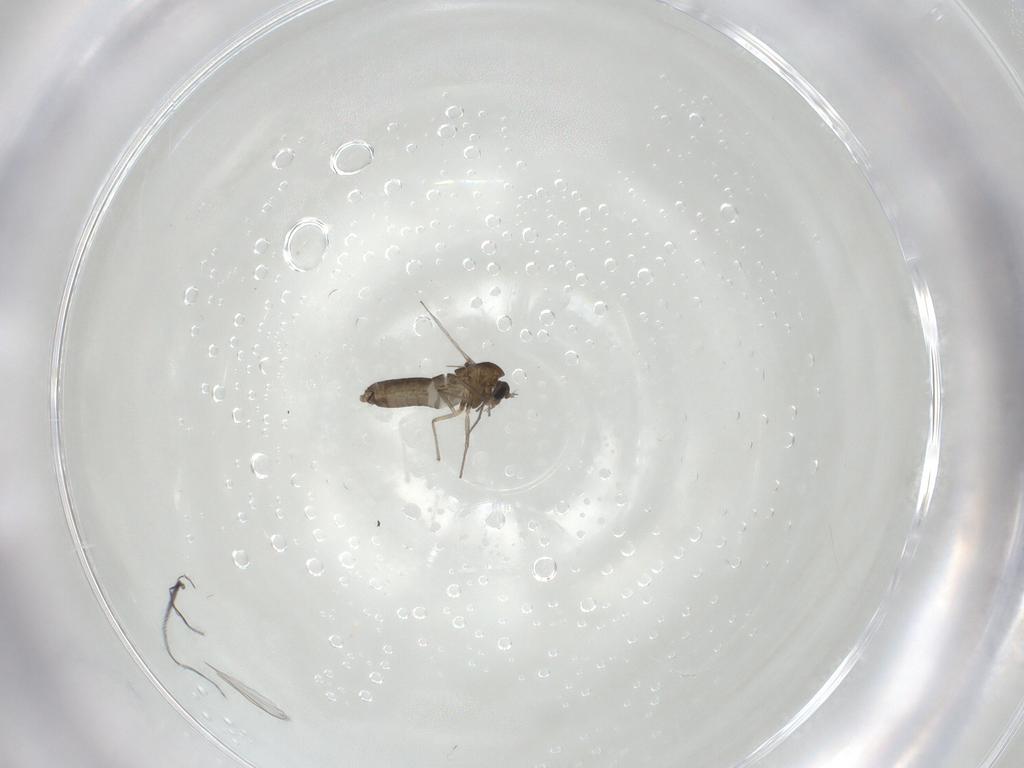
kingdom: Animalia
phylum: Arthropoda
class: Insecta
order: Diptera
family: Chironomidae
